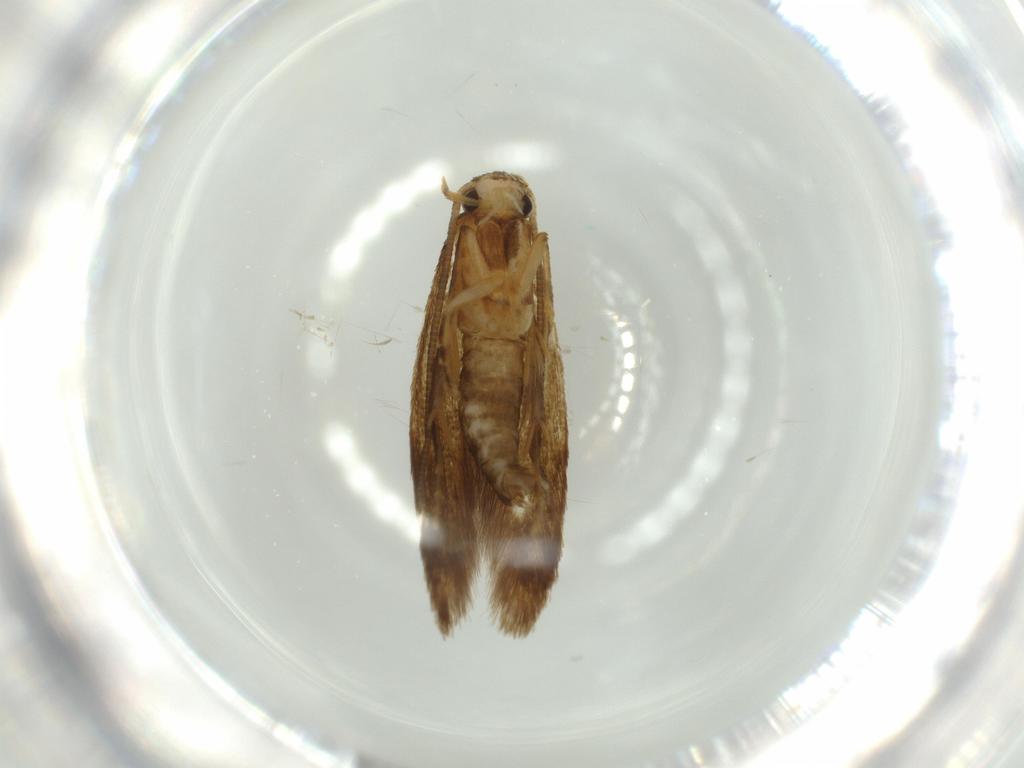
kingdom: Animalia
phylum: Arthropoda
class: Insecta
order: Lepidoptera
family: Tineidae
